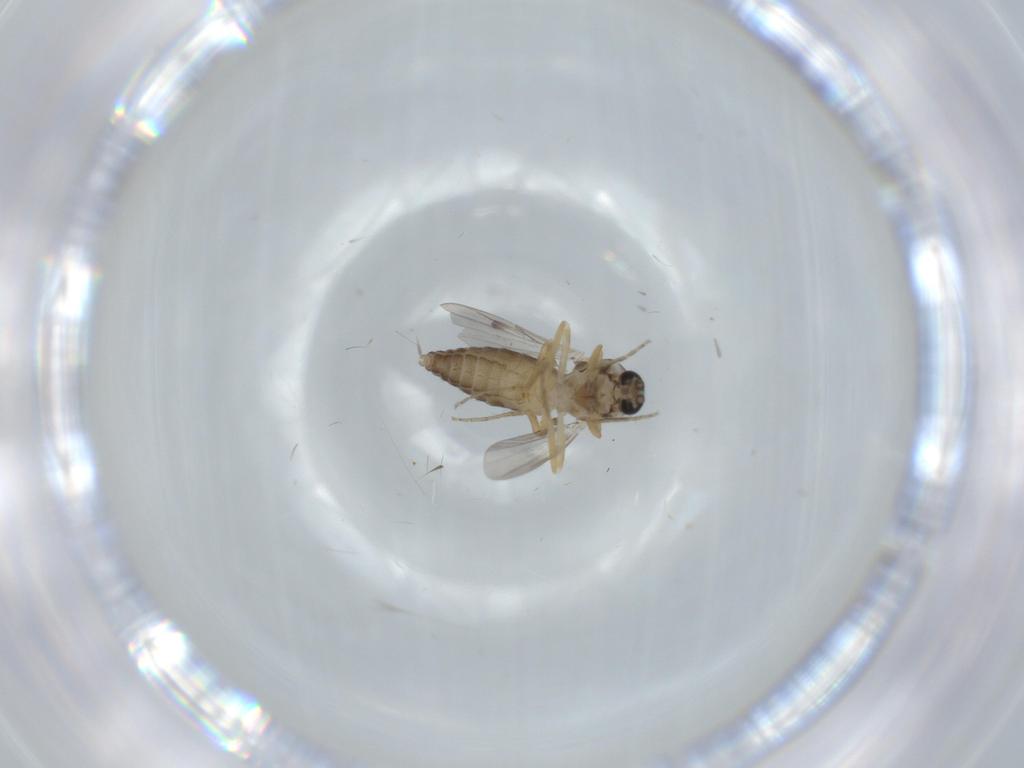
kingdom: Animalia
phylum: Arthropoda
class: Insecta
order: Diptera
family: Ceratopogonidae
